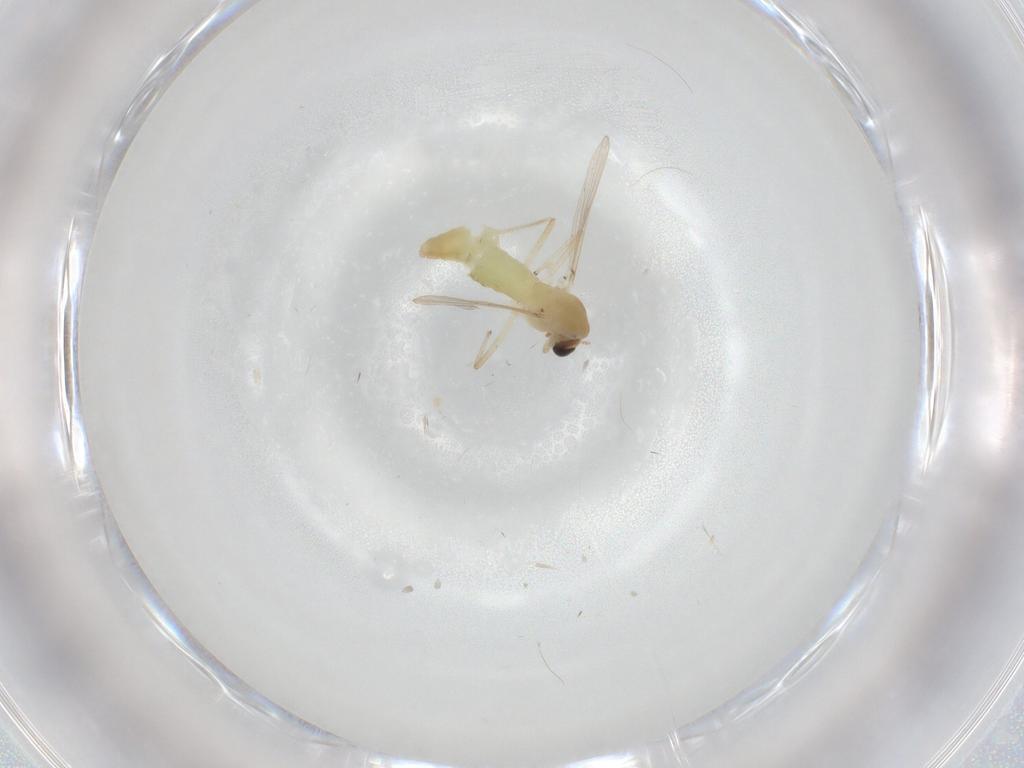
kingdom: Animalia
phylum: Arthropoda
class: Insecta
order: Diptera
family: Chironomidae
